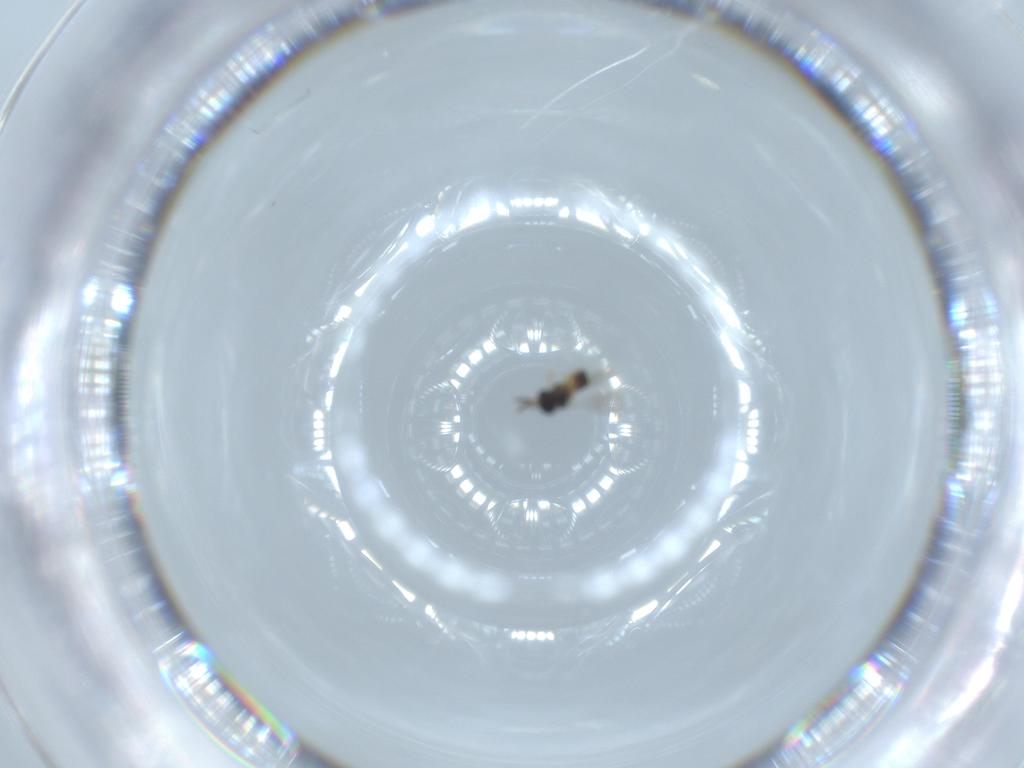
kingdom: Animalia
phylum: Arthropoda
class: Insecta
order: Hymenoptera
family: Scelionidae
